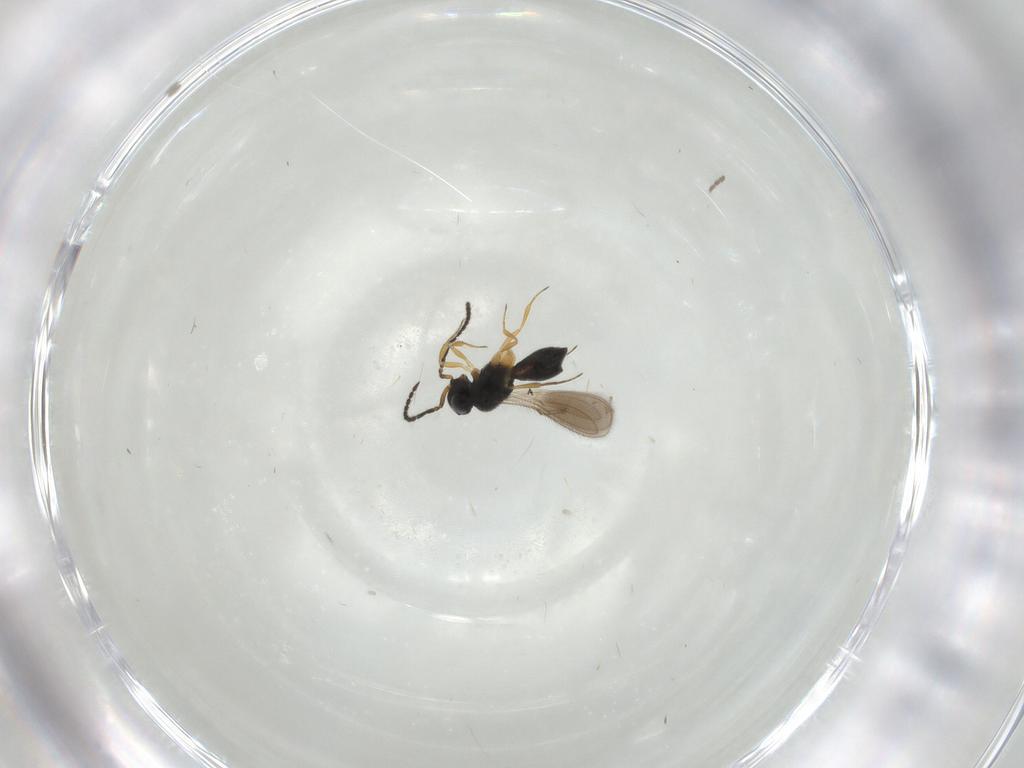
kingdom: Animalia
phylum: Arthropoda
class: Insecta
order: Hymenoptera
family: Scelionidae
